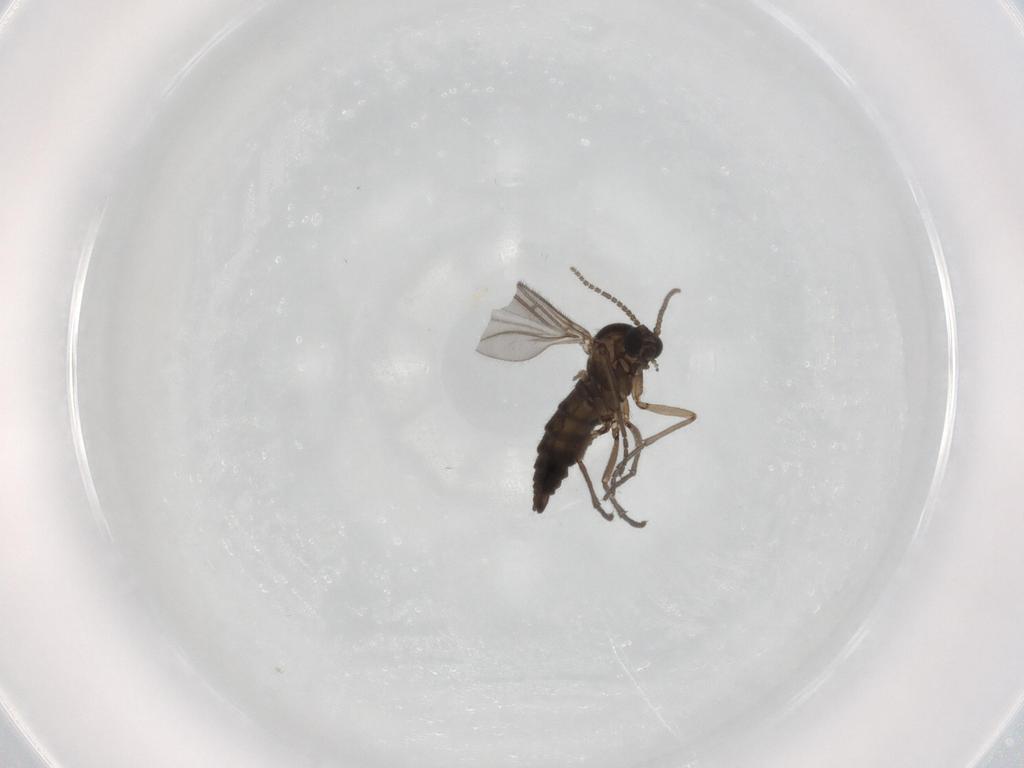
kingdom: Animalia
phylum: Arthropoda
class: Insecta
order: Diptera
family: Sciaridae
